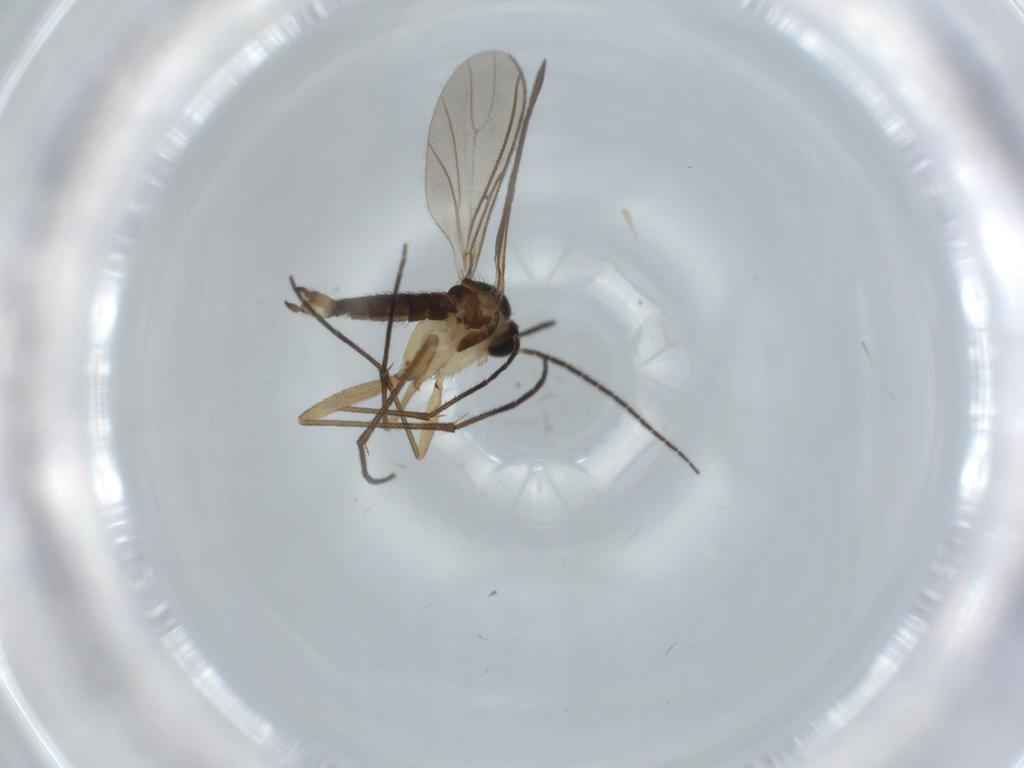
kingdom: Animalia
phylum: Arthropoda
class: Insecta
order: Diptera
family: Sciaridae
